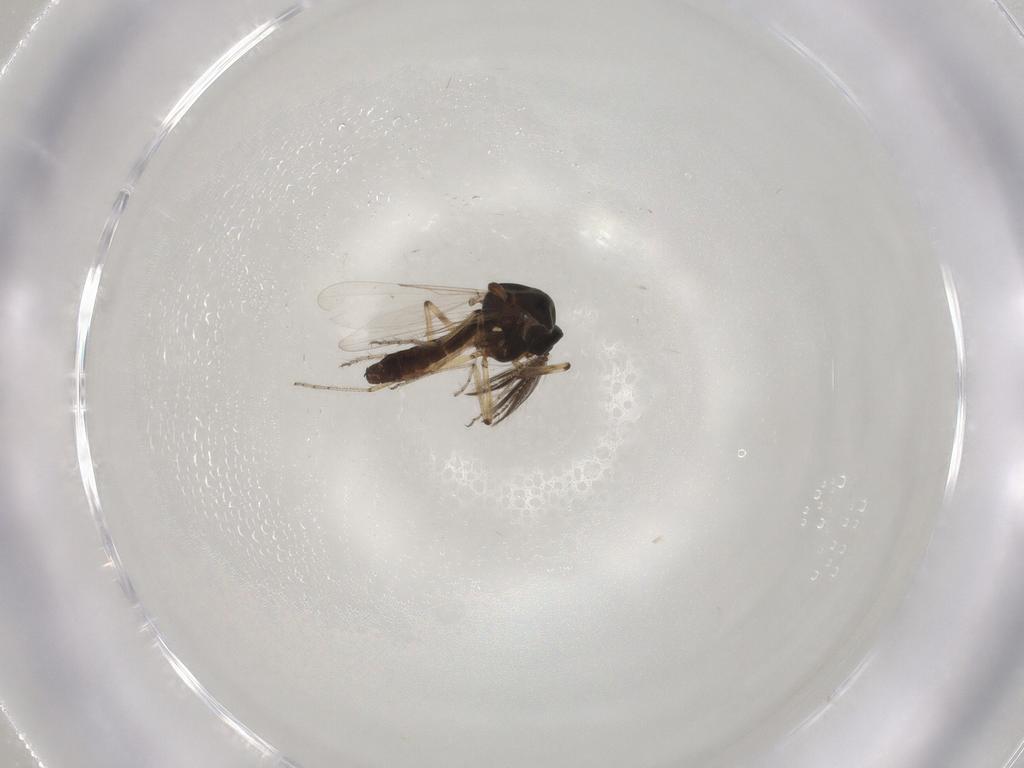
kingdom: Animalia
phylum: Arthropoda
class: Insecta
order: Diptera
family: Ceratopogonidae
